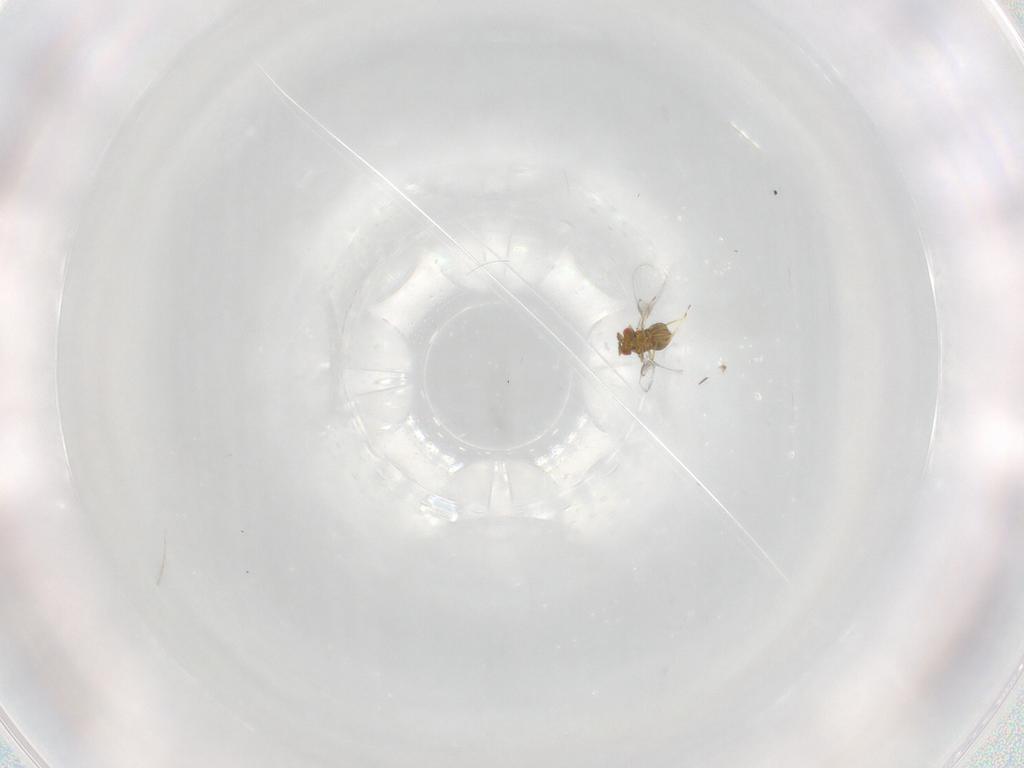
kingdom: Animalia
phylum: Arthropoda
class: Insecta
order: Hymenoptera
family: Trichogrammatidae
